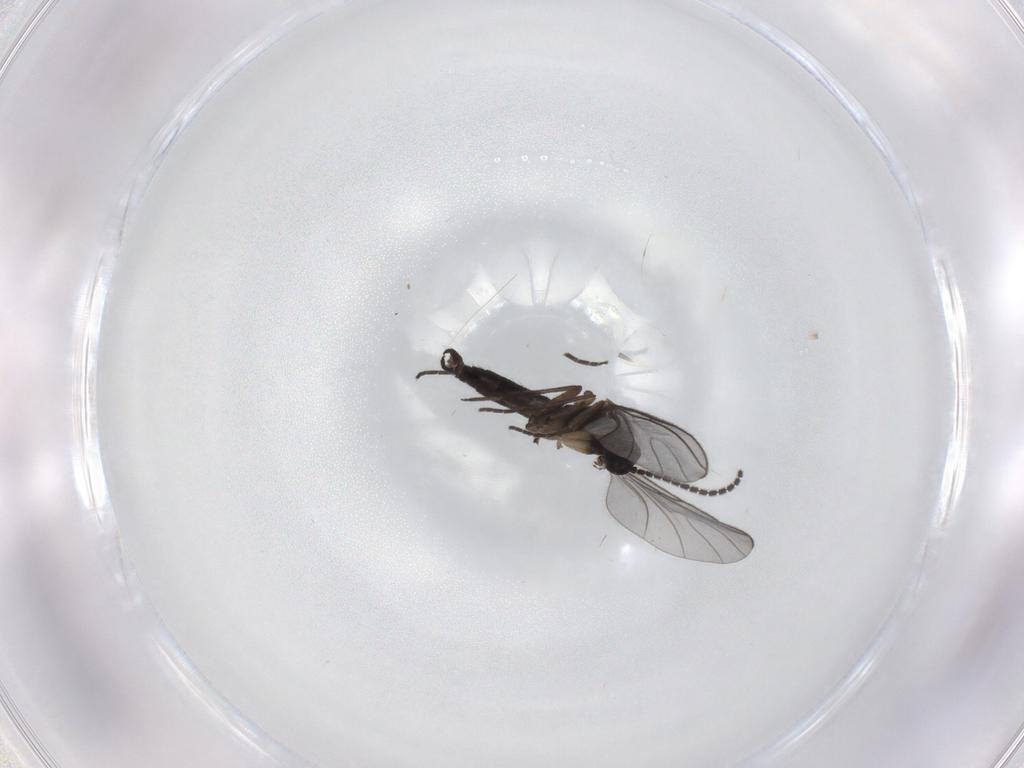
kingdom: Animalia
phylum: Arthropoda
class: Insecta
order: Diptera
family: Sciaridae
